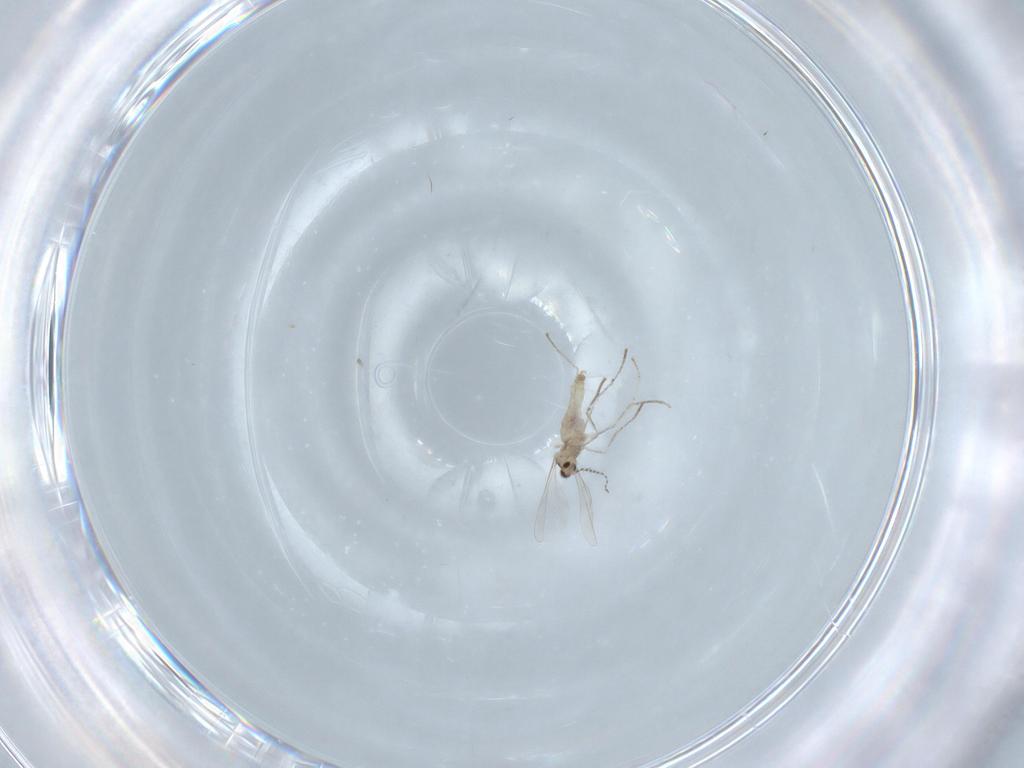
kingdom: Animalia
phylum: Arthropoda
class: Insecta
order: Diptera
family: Cecidomyiidae
